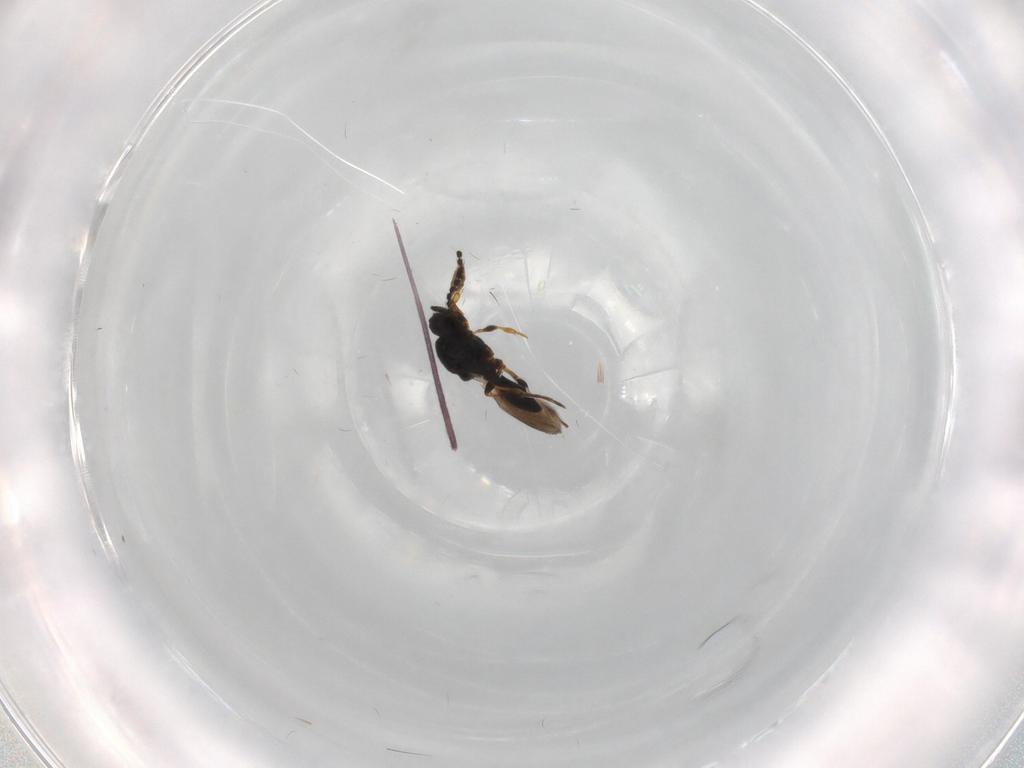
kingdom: Animalia
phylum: Arthropoda
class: Insecta
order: Hymenoptera
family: Platygastridae
